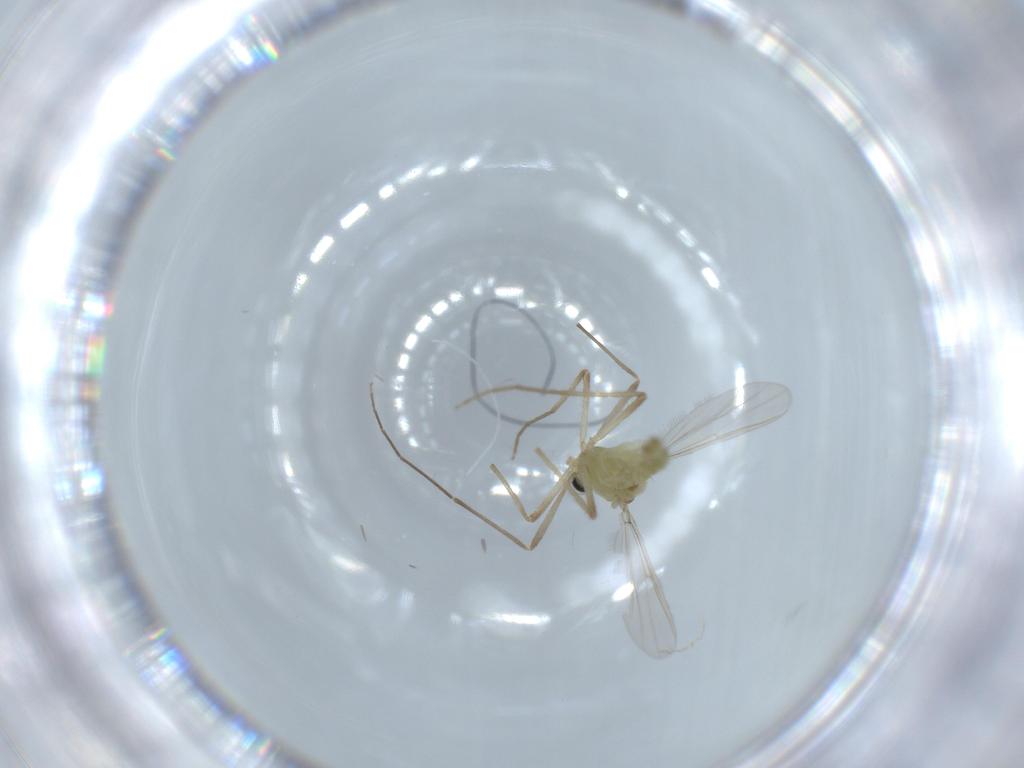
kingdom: Animalia
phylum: Arthropoda
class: Insecta
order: Diptera
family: Chironomidae
